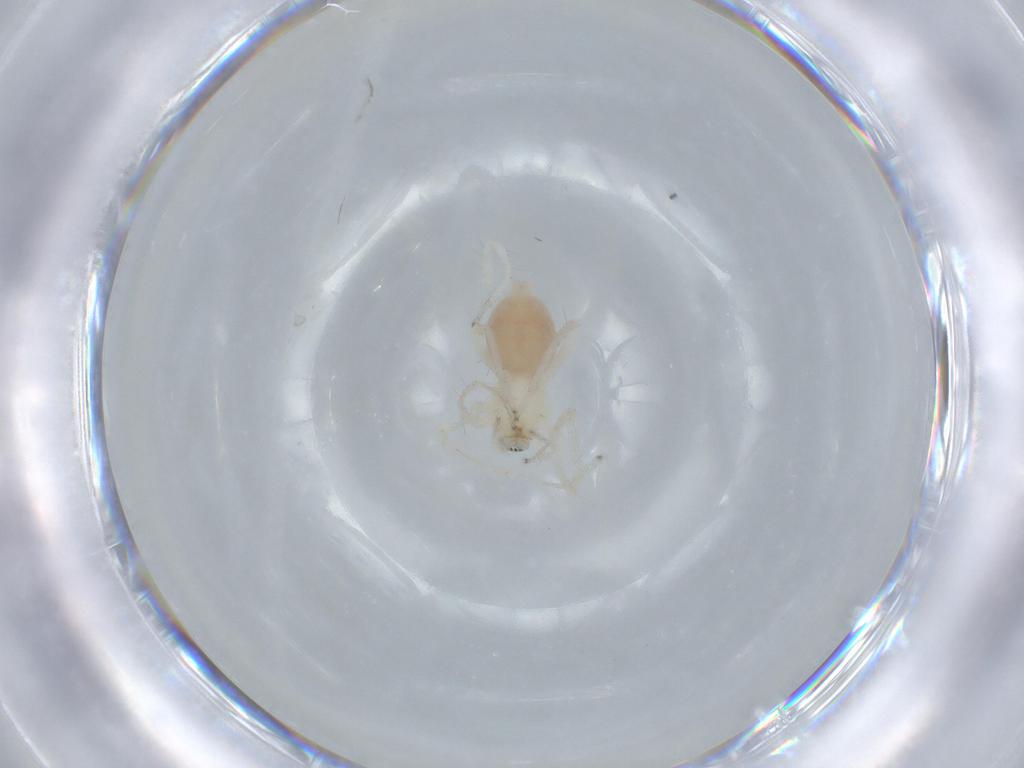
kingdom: Animalia
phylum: Arthropoda
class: Arachnida
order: Araneae
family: Anyphaenidae
